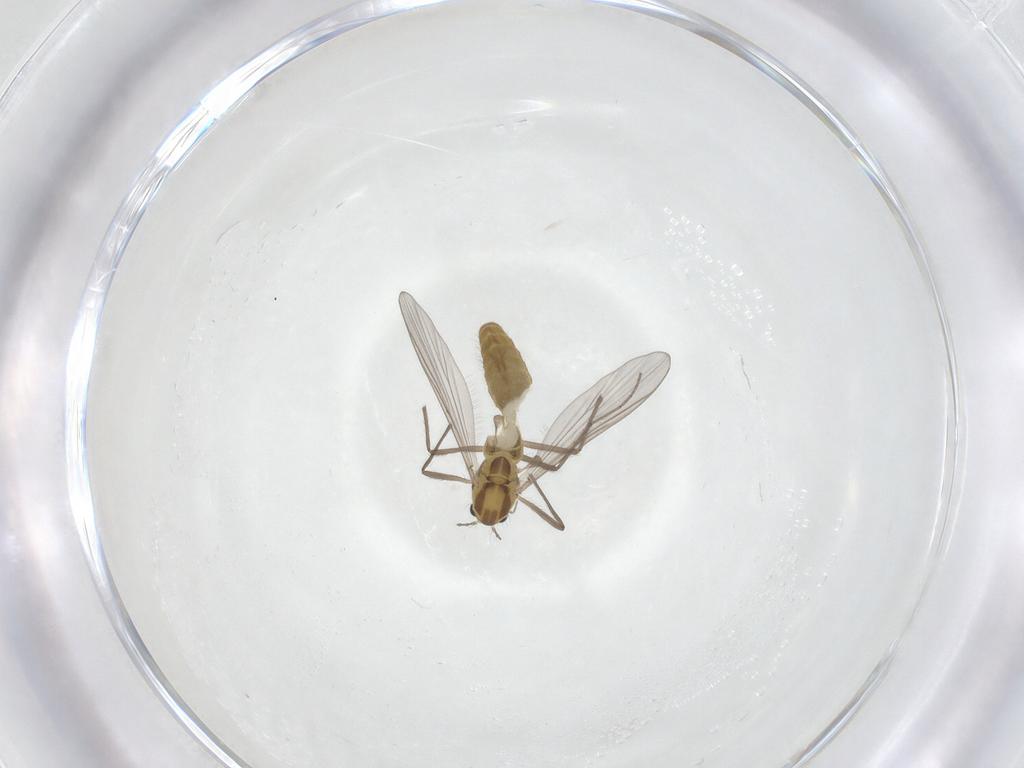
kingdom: Animalia
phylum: Arthropoda
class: Insecta
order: Diptera
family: Chironomidae
